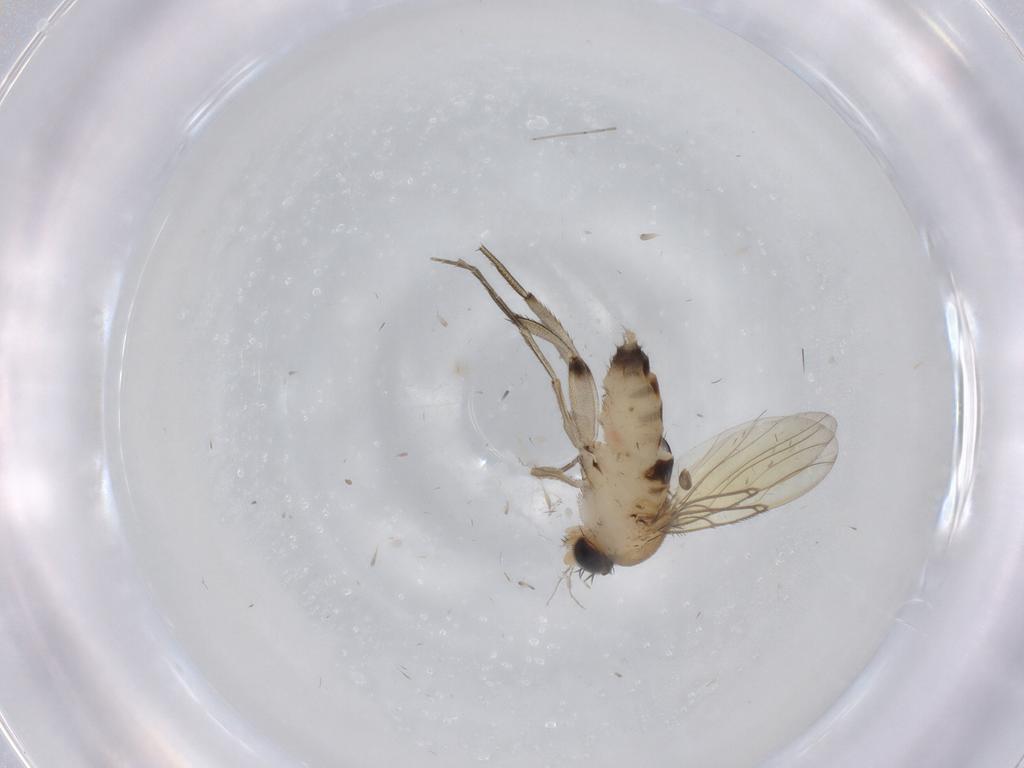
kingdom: Animalia
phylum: Arthropoda
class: Insecta
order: Diptera
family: Phoridae
